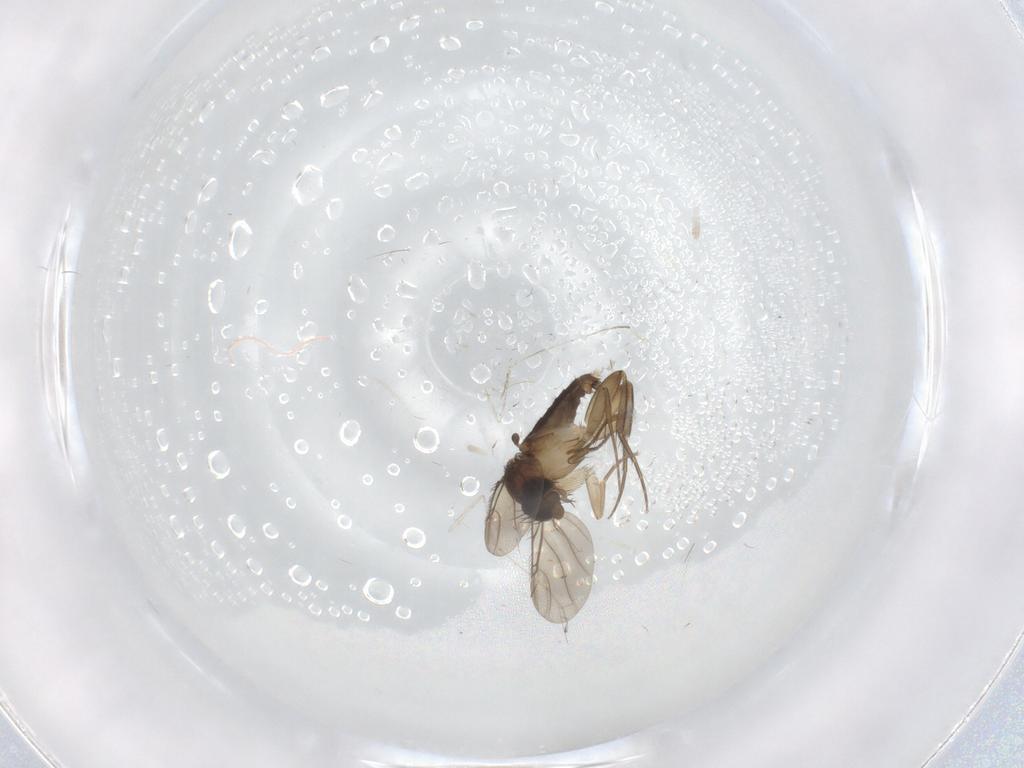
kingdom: Animalia
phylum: Arthropoda
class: Insecta
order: Diptera
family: Phoridae
